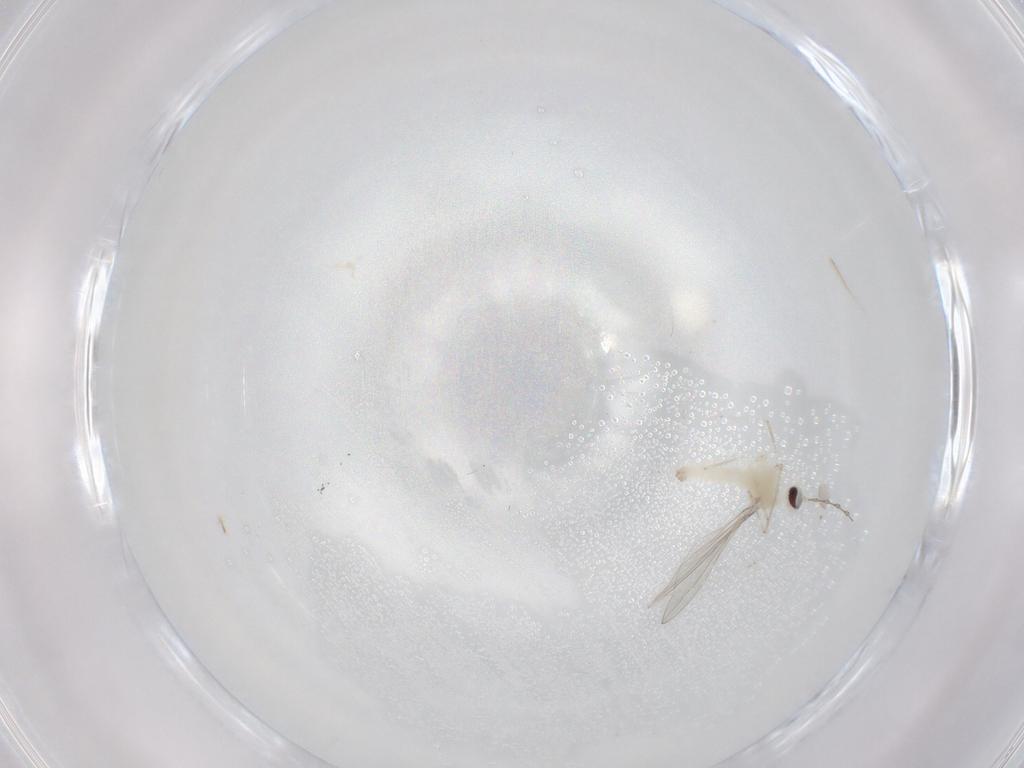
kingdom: Animalia
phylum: Arthropoda
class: Insecta
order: Diptera
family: Cecidomyiidae
